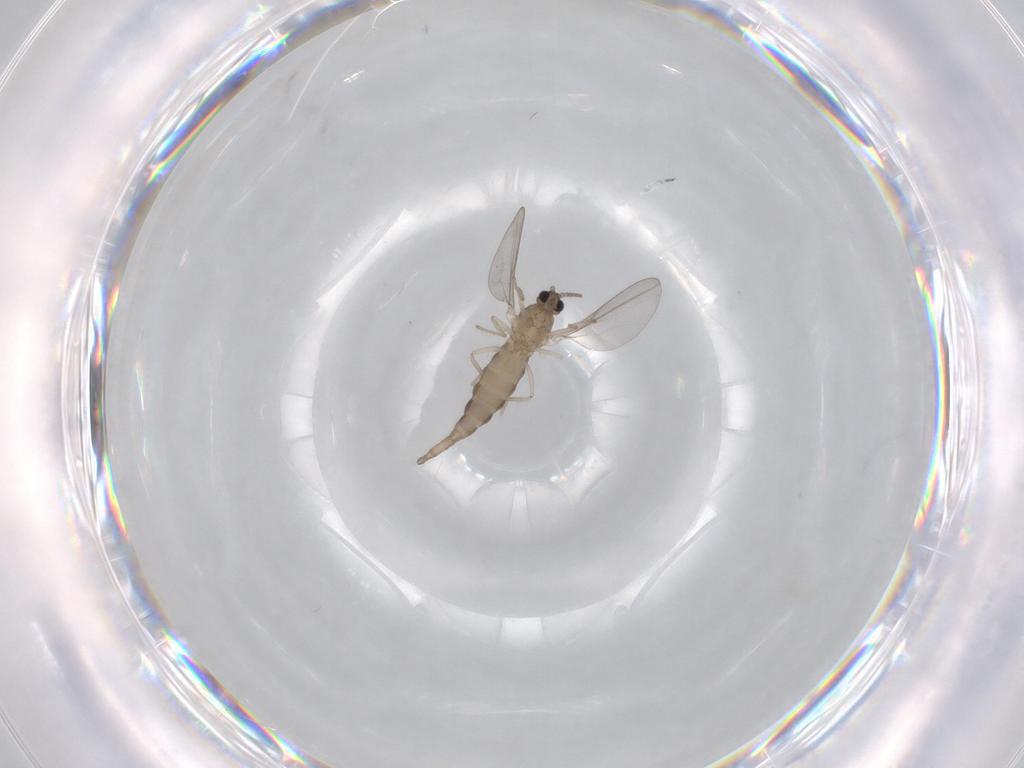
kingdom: Animalia
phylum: Arthropoda
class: Insecta
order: Diptera
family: Cecidomyiidae
